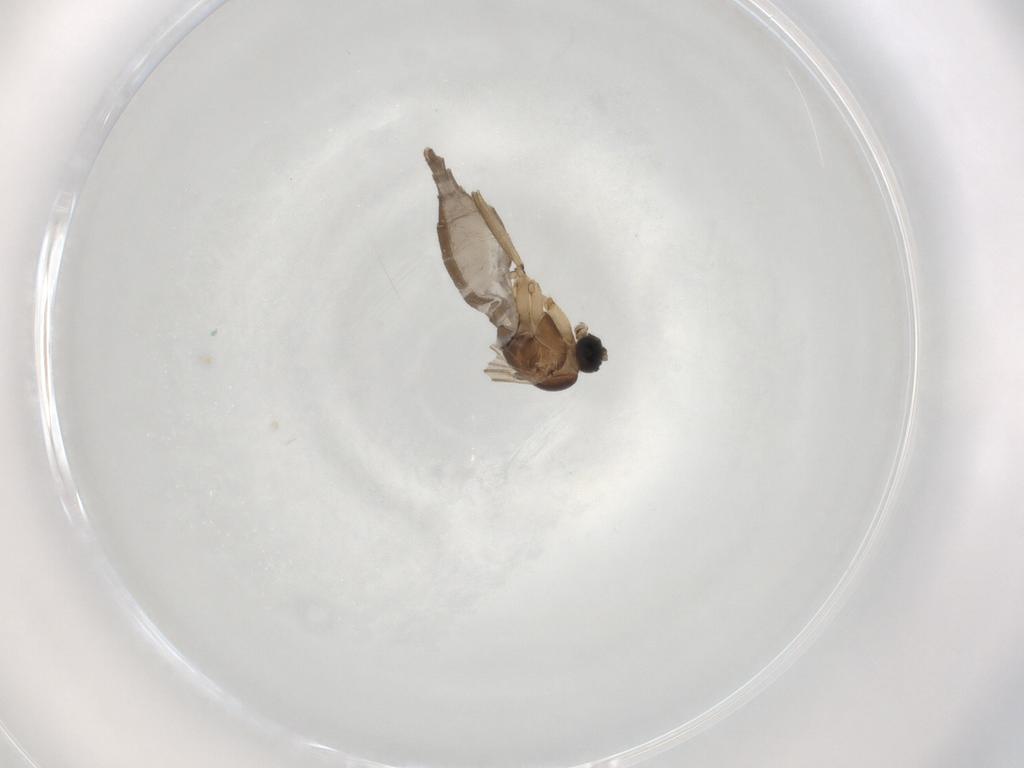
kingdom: Animalia
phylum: Arthropoda
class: Insecta
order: Diptera
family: Sciaridae
